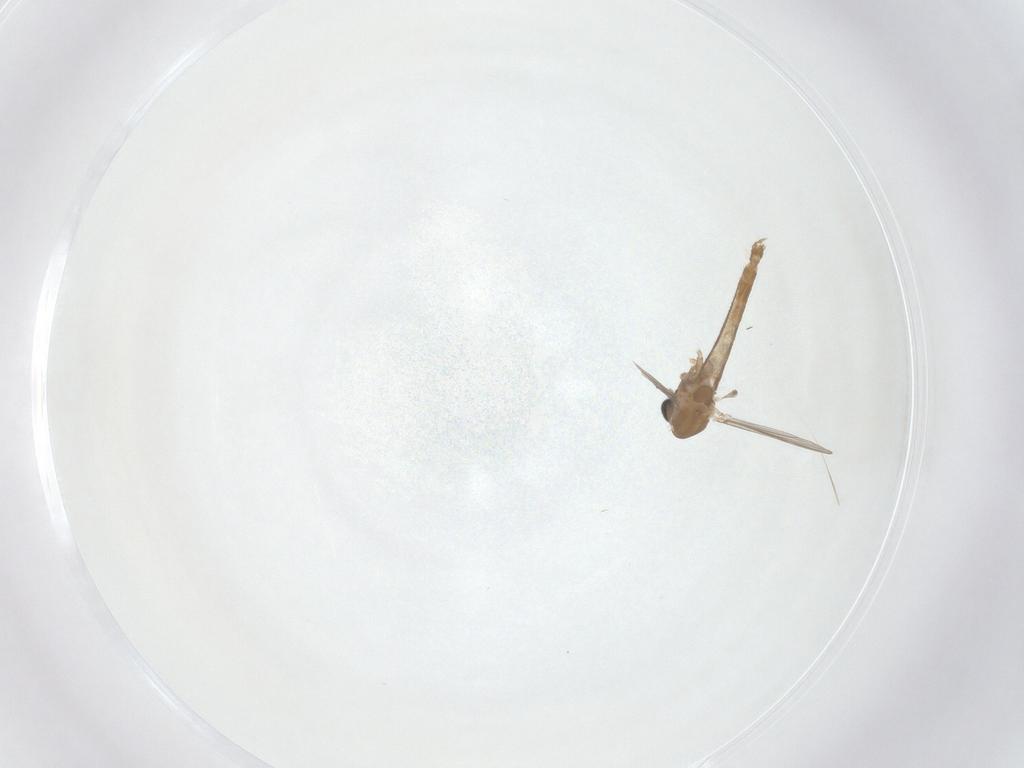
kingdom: Animalia
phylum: Arthropoda
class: Insecta
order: Diptera
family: Chironomidae
